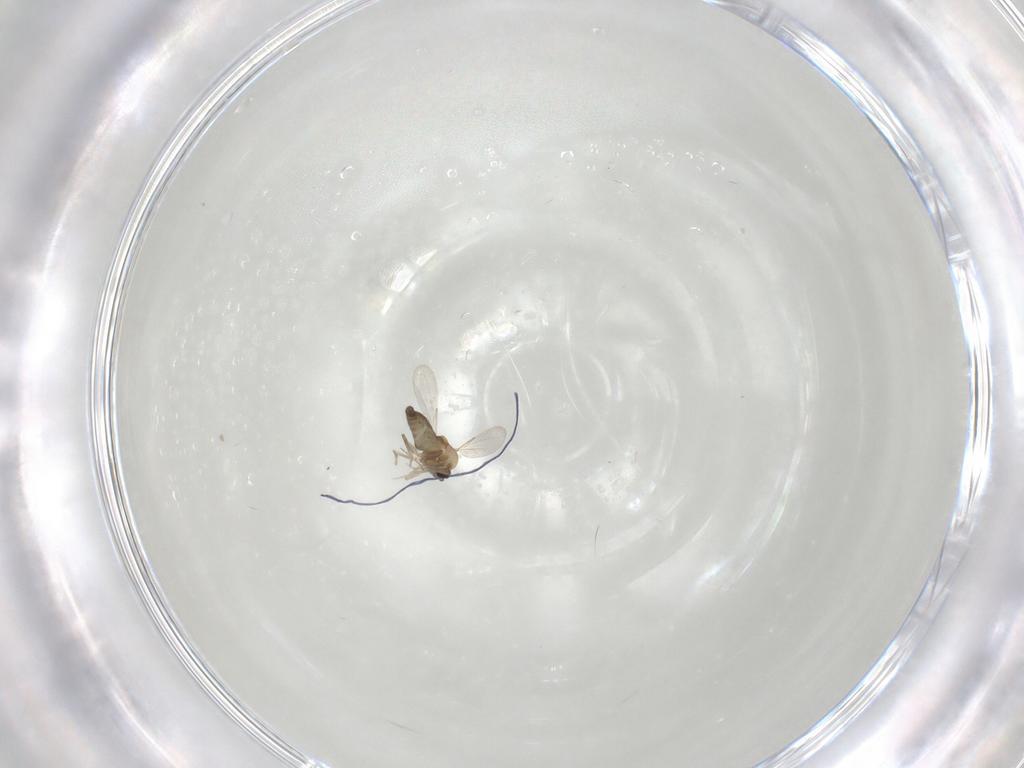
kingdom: Animalia
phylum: Arthropoda
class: Insecta
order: Diptera
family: Ceratopogonidae
